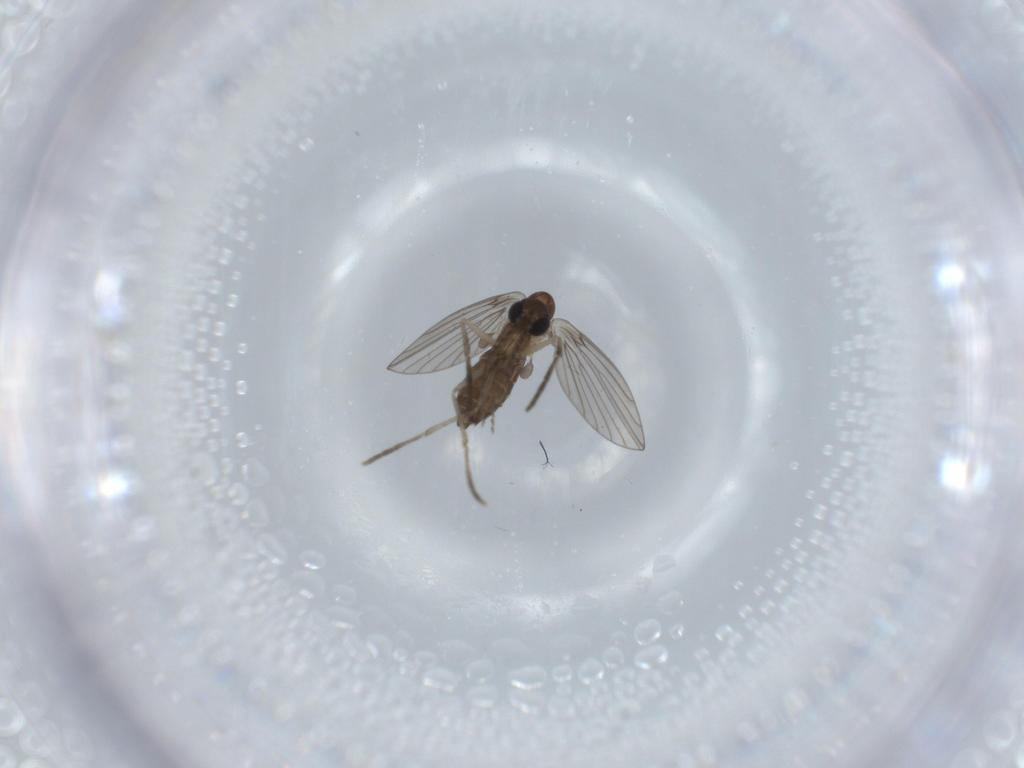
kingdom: Animalia
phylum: Arthropoda
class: Insecta
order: Diptera
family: Psychodidae
